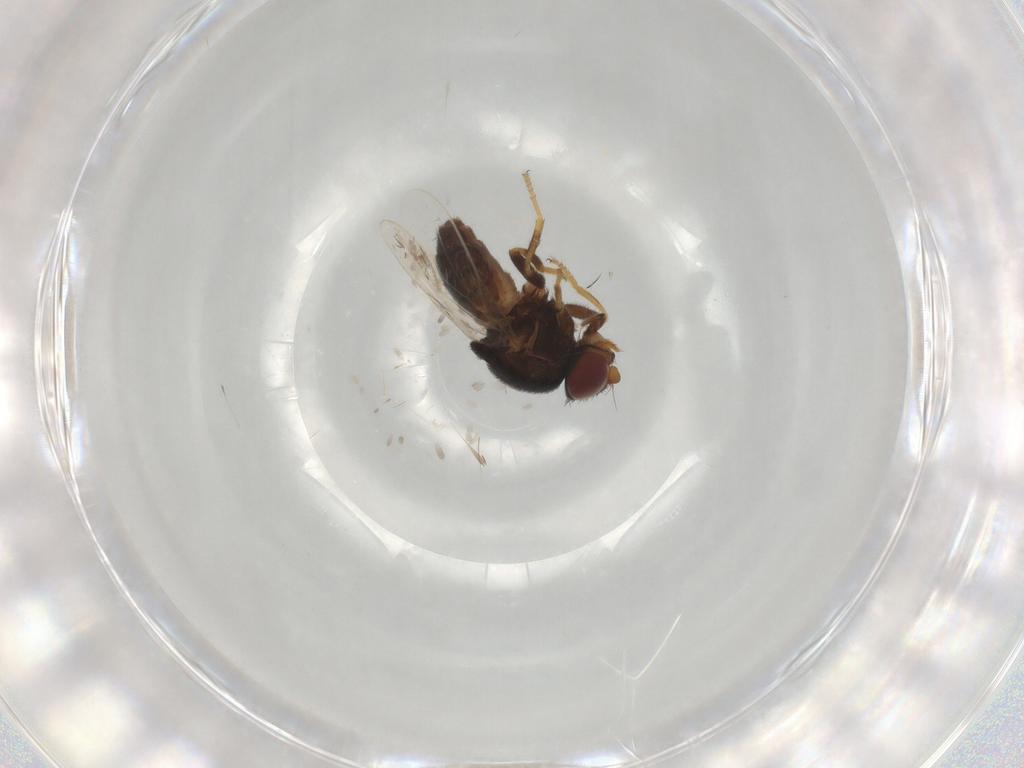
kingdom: Animalia
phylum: Arthropoda
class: Insecta
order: Diptera
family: Chloropidae
